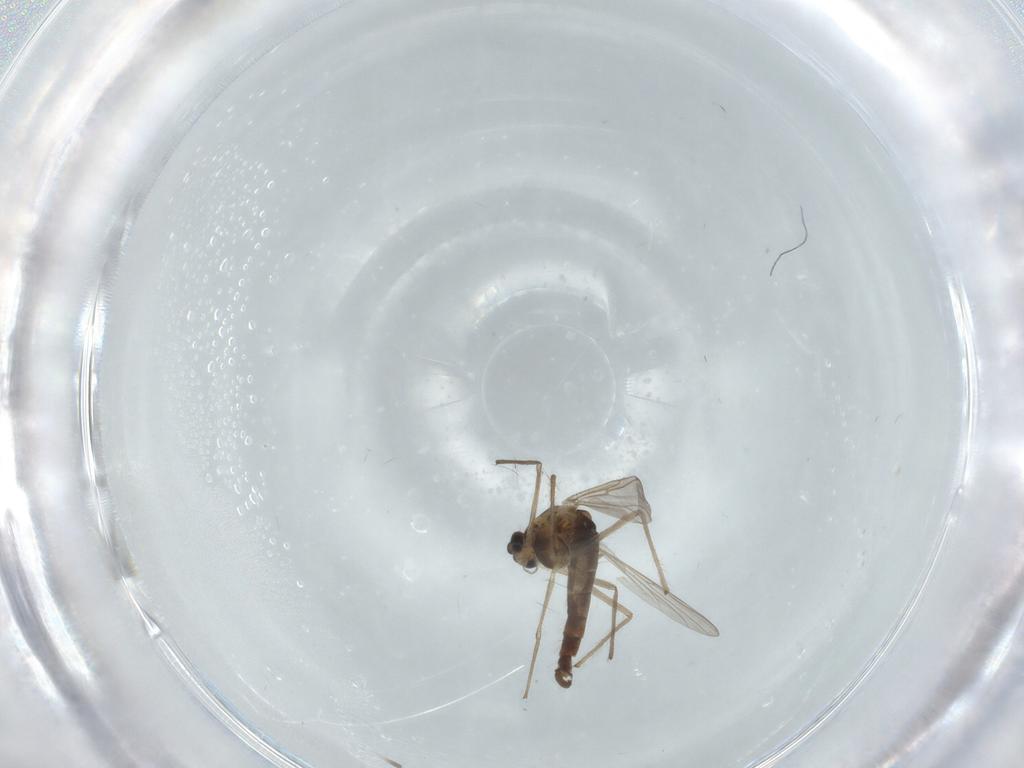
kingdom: Animalia
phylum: Arthropoda
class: Insecta
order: Diptera
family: Chironomidae
